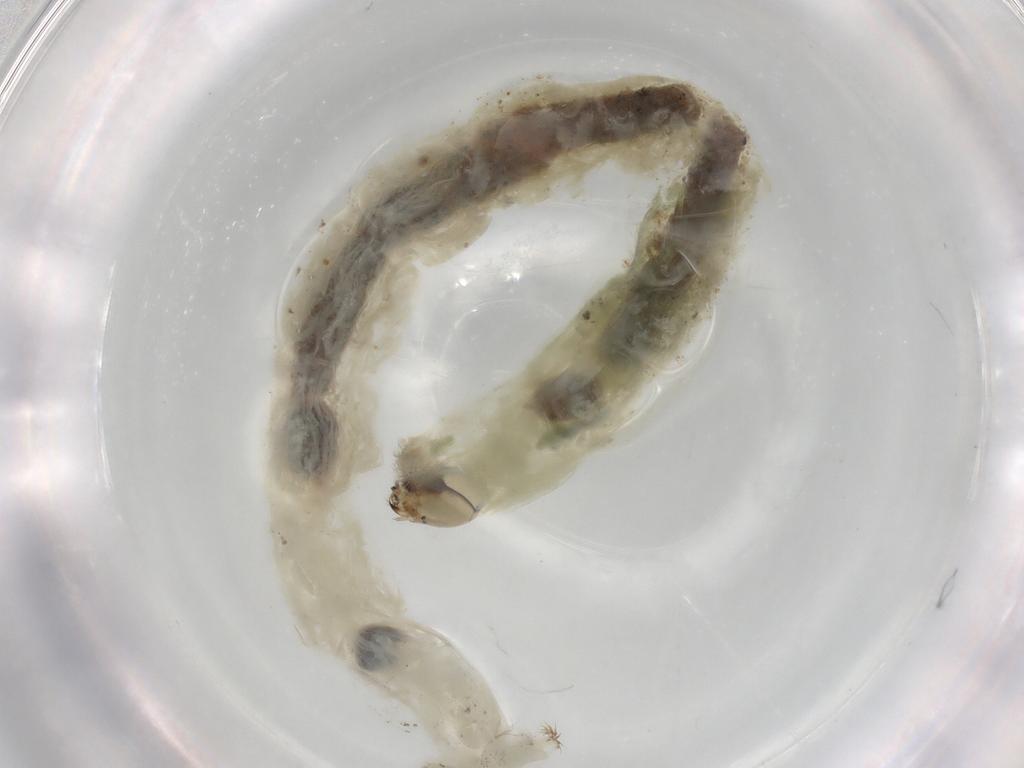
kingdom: Animalia
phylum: Arthropoda
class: Insecta
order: Diptera
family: Chironomidae
